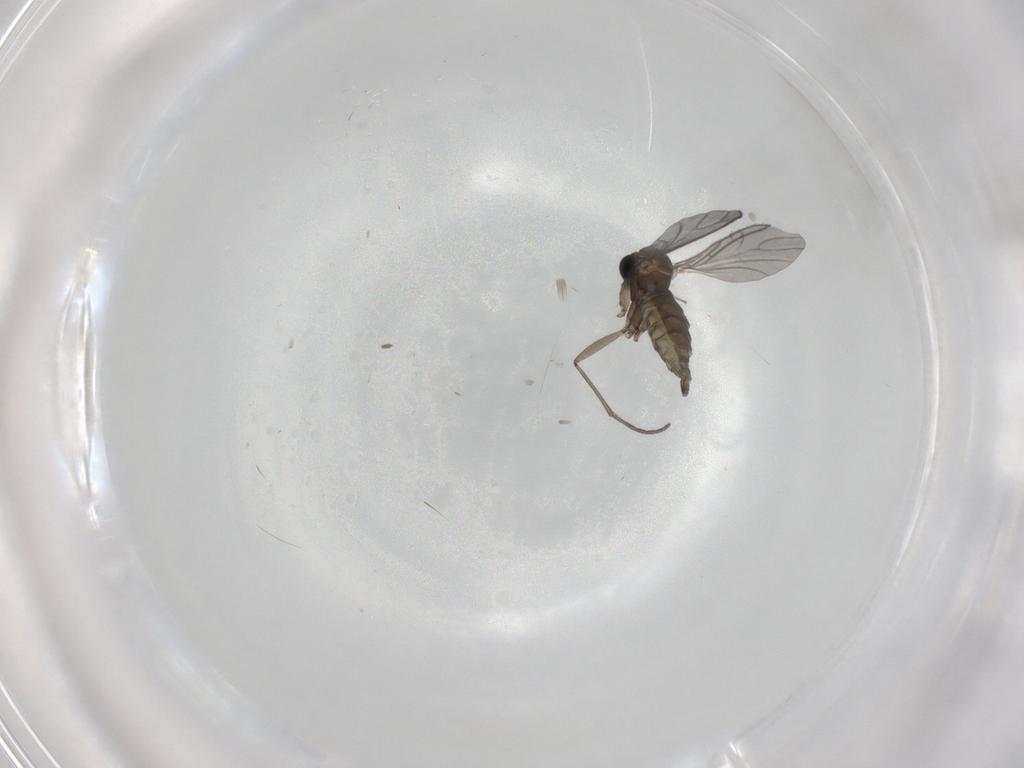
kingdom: Animalia
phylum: Arthropoda
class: Insecta
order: Diptera
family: Sciaridae
